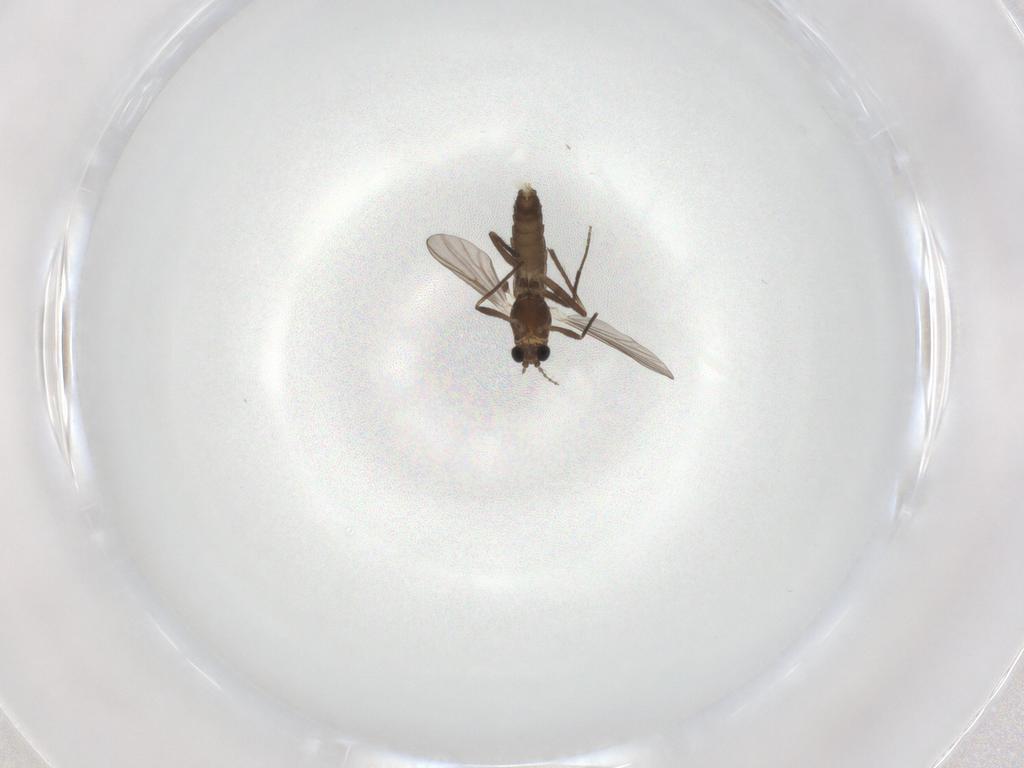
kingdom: Animalia
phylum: Arthropoda
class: Insecta
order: Diptera
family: Chironomidae
